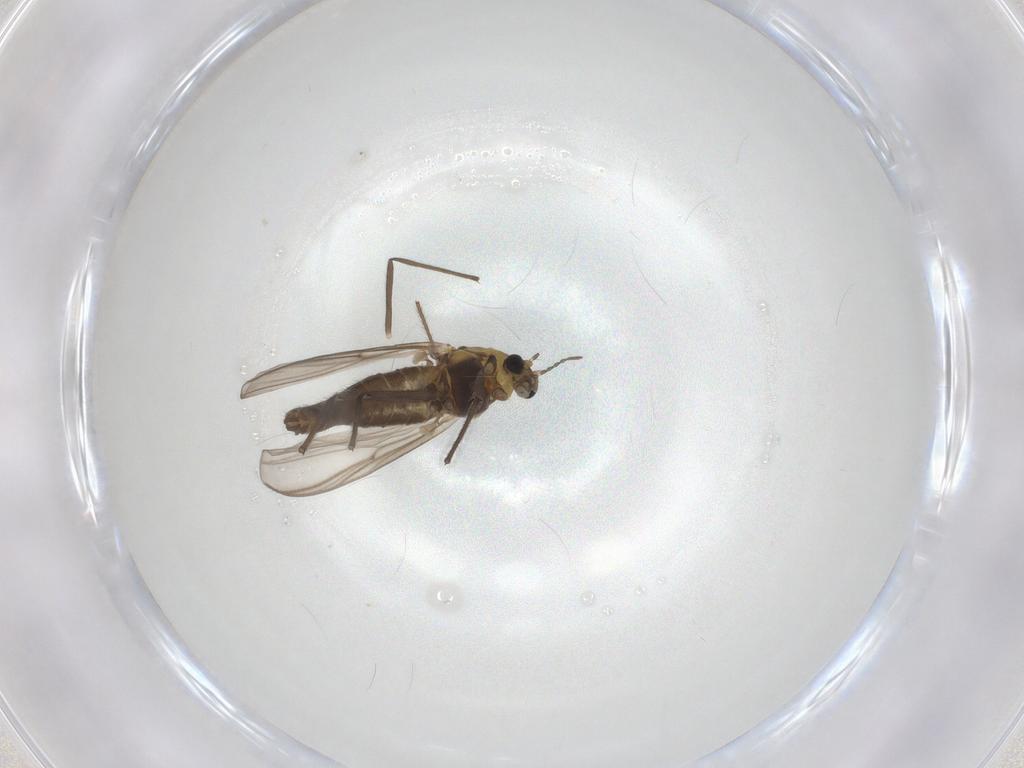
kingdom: Animalia
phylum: Arthropoda
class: Insecta
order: Diptera
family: Chironomidae
